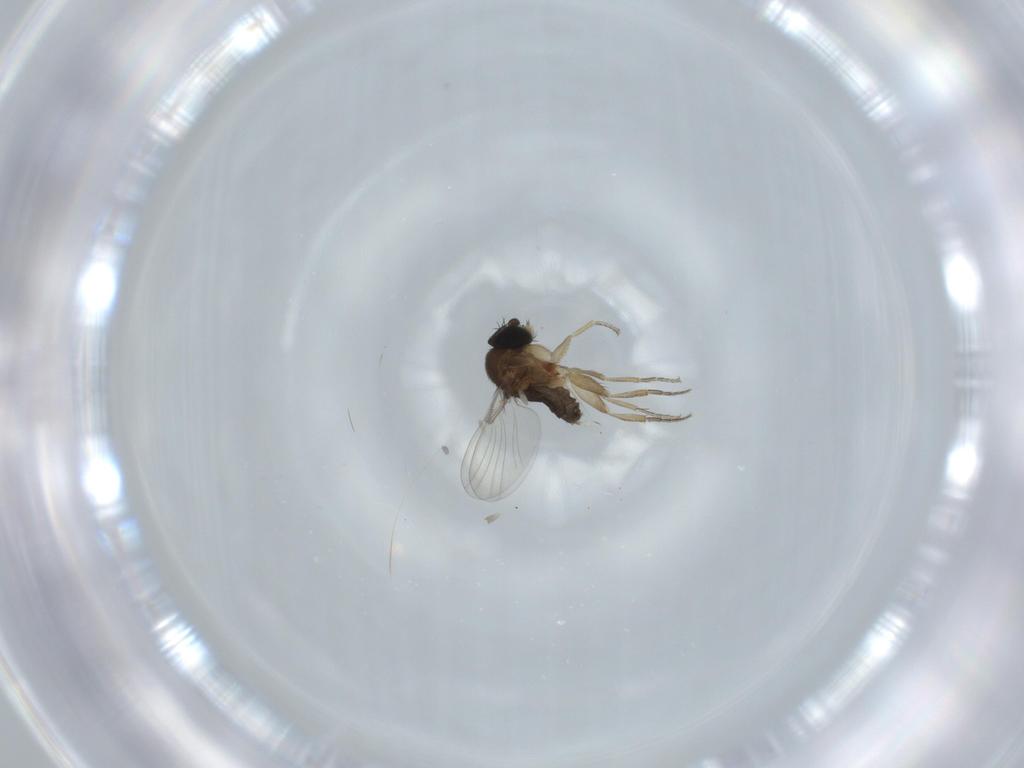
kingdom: Animalia
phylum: Arthropoda
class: Insecta
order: Diptera
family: Phoridae
